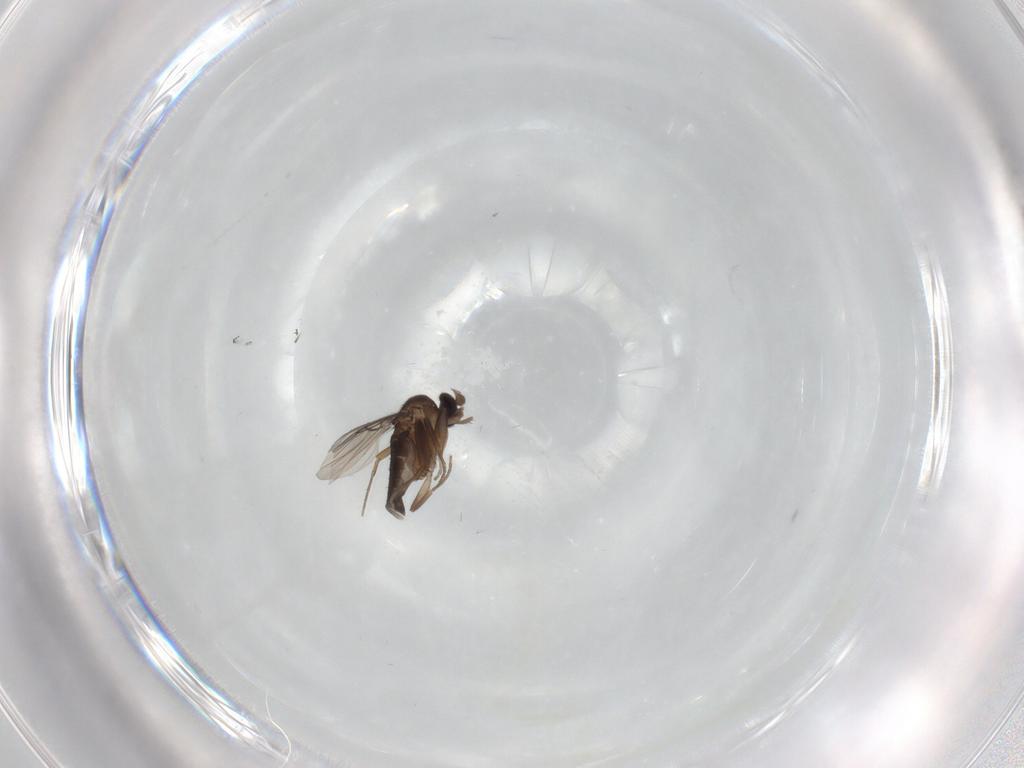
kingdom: Animalia
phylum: Arthropoda
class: Insecta
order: Diptera
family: Phoridae
